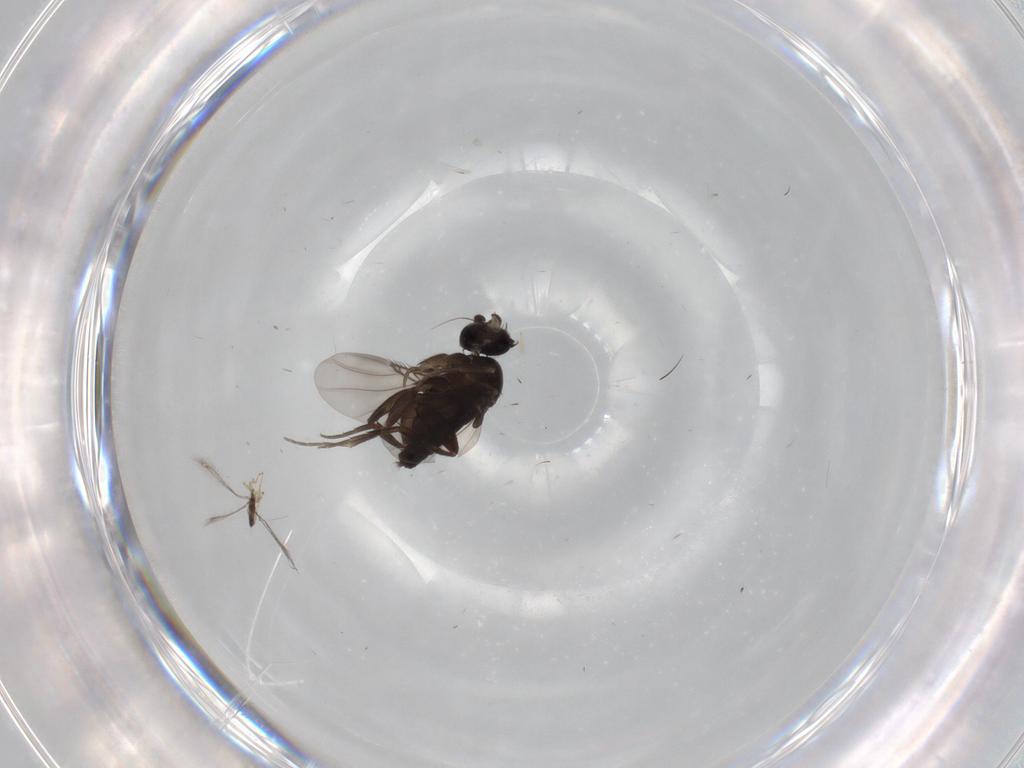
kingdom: Animalia
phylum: Arthropoda
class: Insecta
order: Diptera
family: Phoridae
